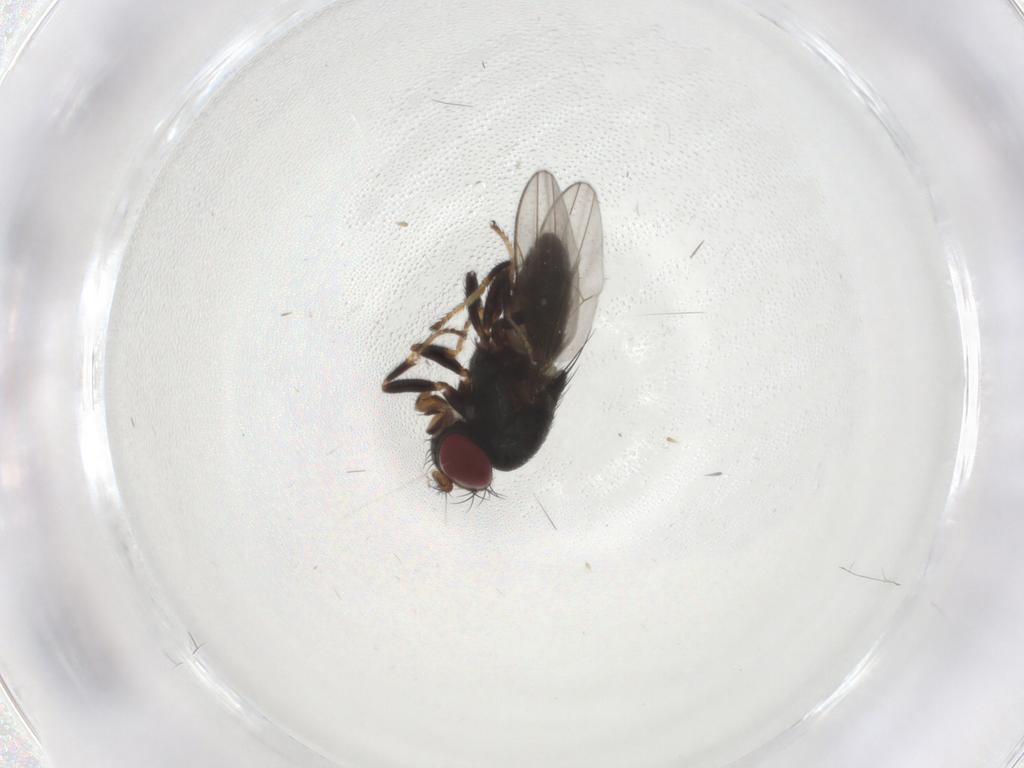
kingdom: Animalia
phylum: Arthropoda
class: Insecta
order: Diptera
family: Ephydridae
